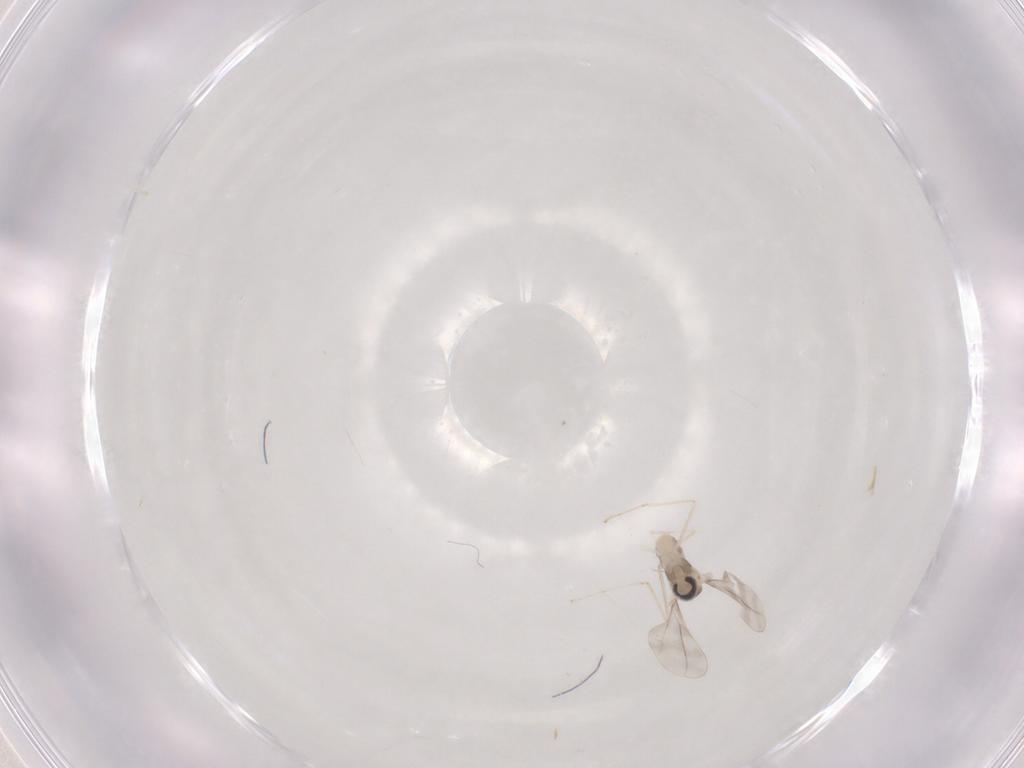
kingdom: Animalia
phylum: Arthropoda
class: Insecta
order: Diptera
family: Cecidomyiidae
